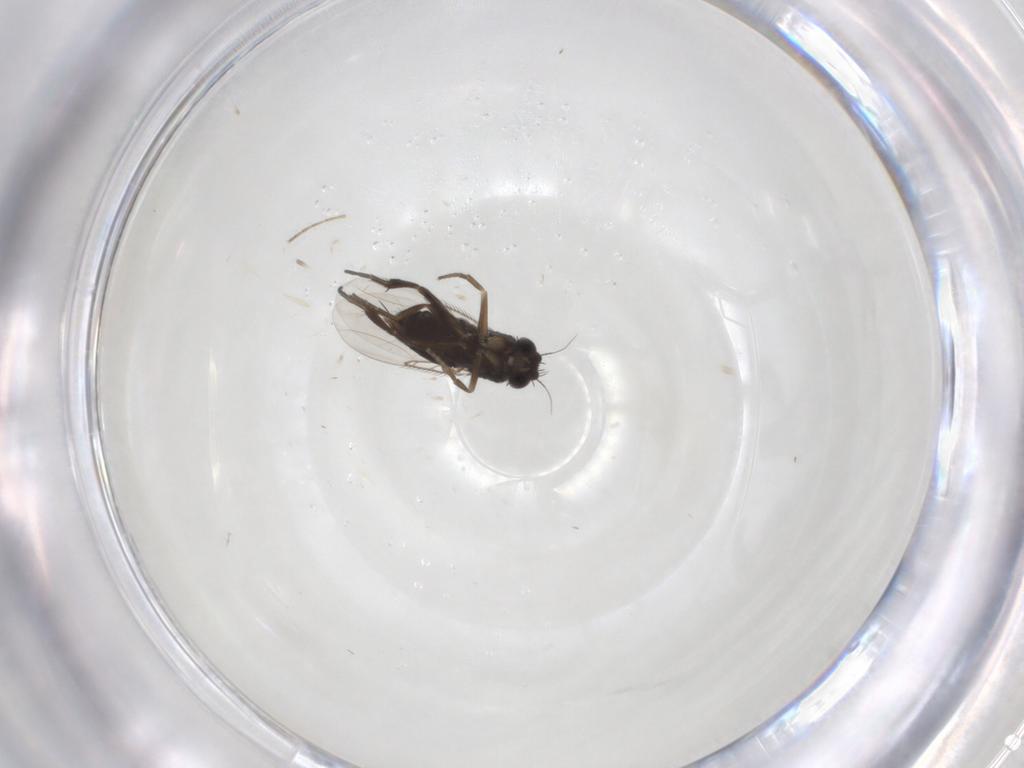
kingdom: Animalia
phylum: Arthropoda
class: Insecta
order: Diptera
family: Phoridae
